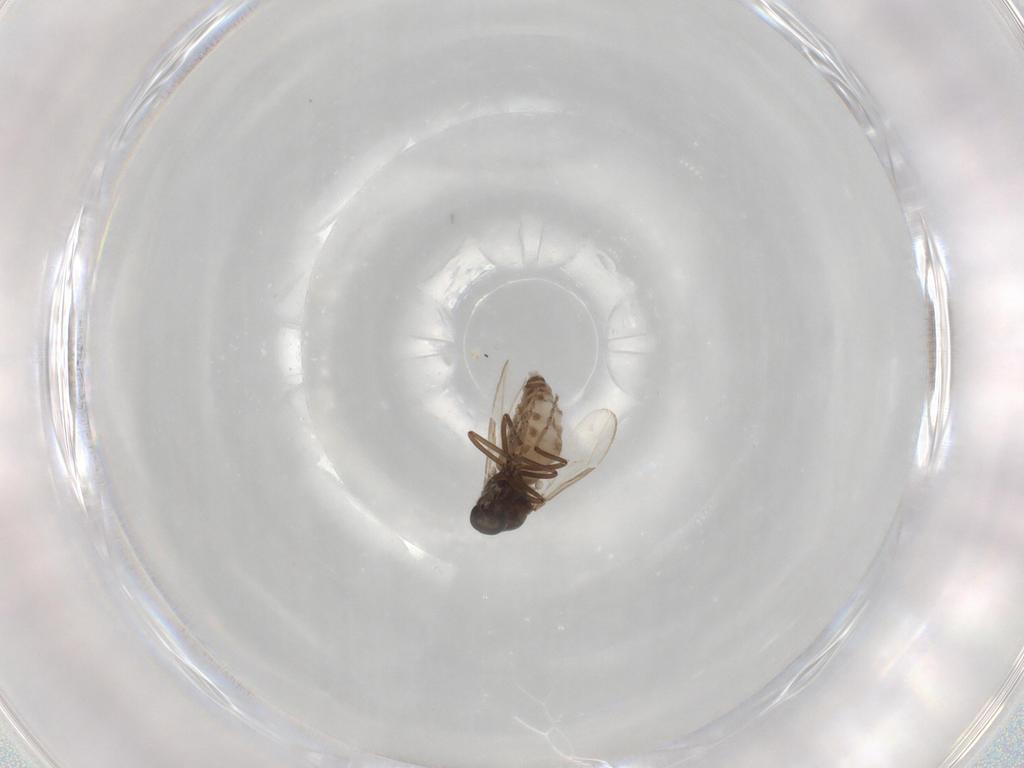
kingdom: Animalia
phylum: Arthropoda
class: Insecta
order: Diptera
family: Ceratopogonidae
